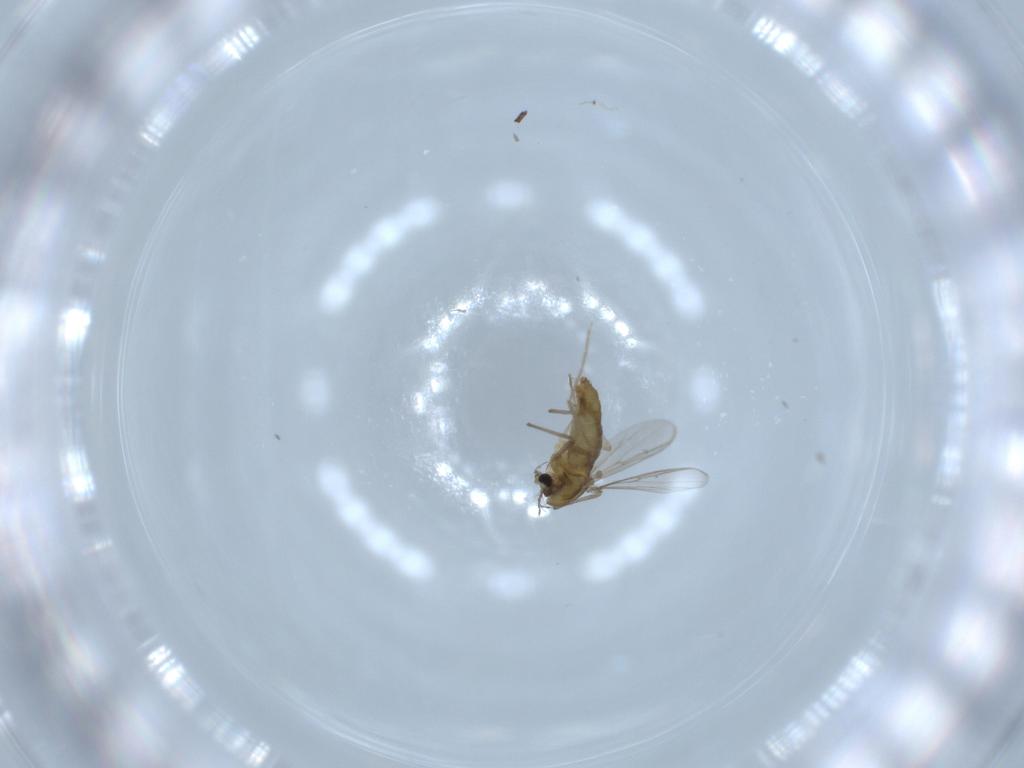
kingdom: Animalia
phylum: Arthropoda
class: Insecta
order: Diptera
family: Chironomidae
